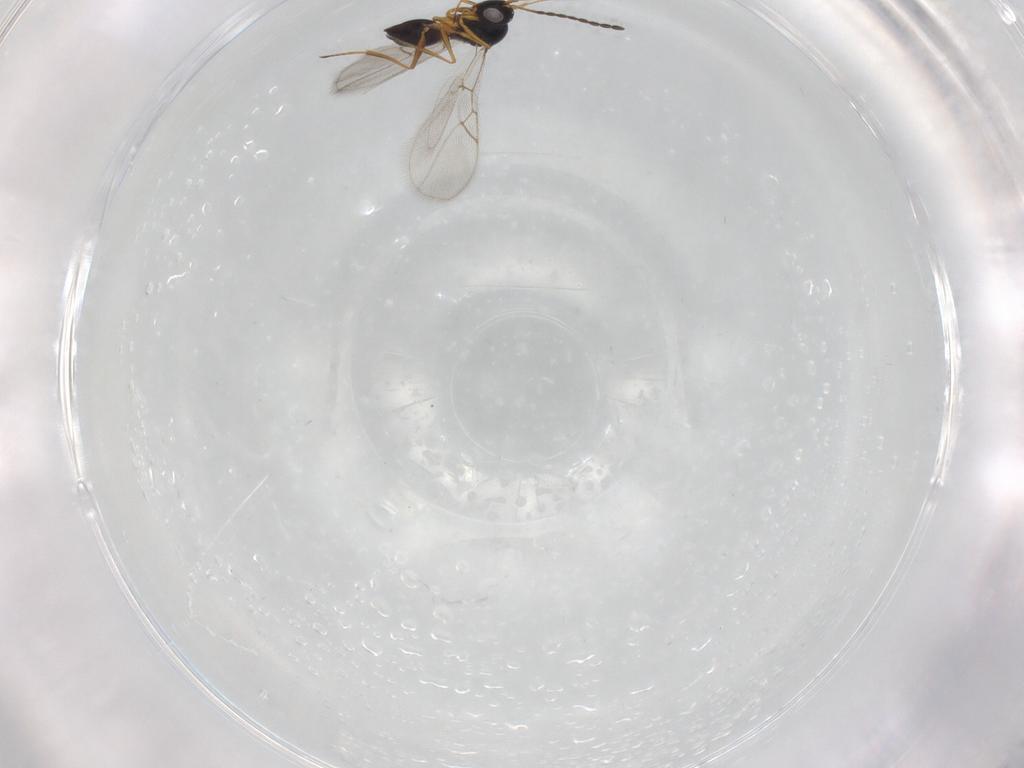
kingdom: Animalia
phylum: Arthropoda
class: Insecta
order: Hymenoptera
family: Figitidae
